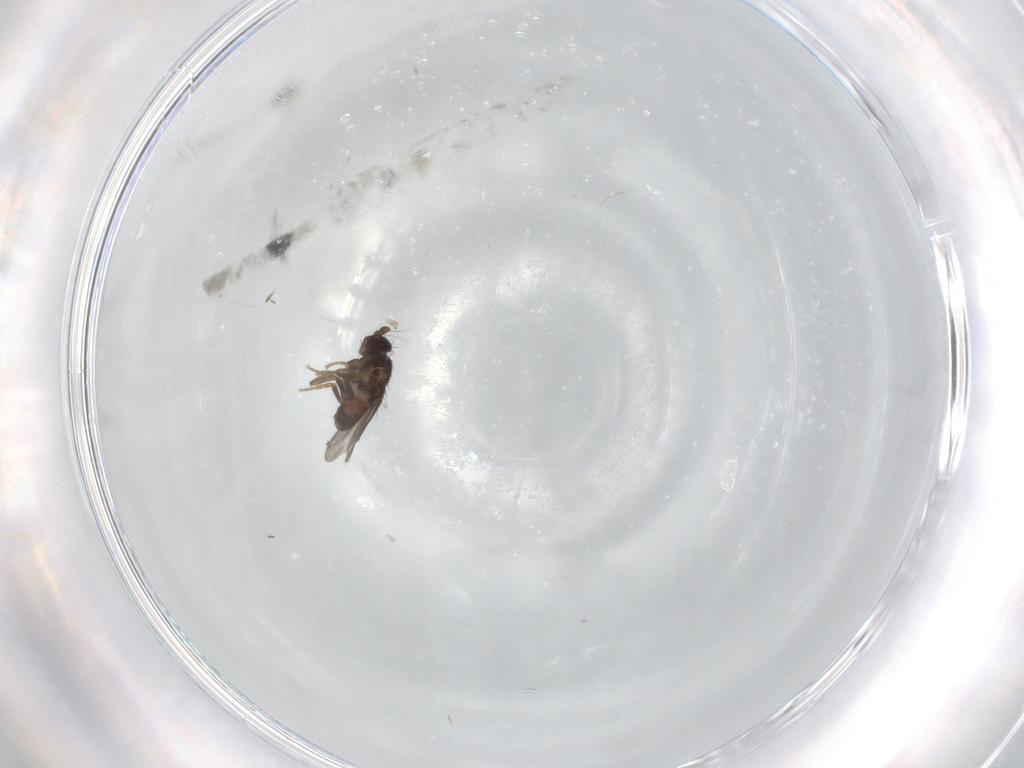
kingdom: Animalia
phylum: Arthropoda
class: Insecta
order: Diptera
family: Sphaeroceridae
